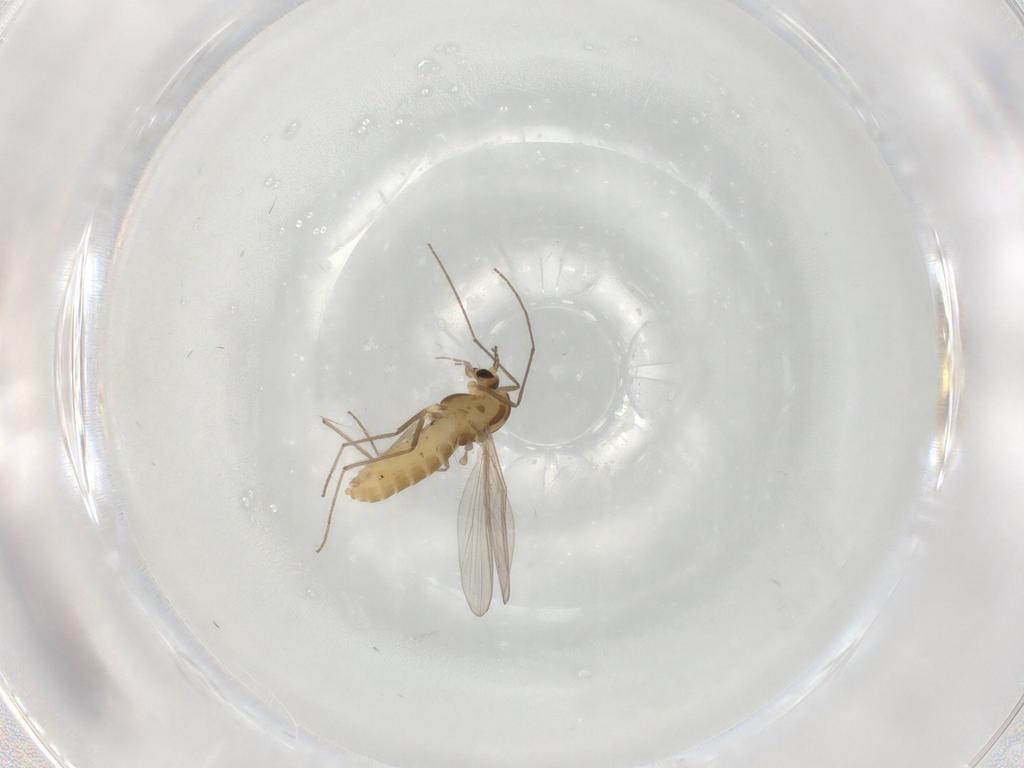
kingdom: Animalia
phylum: Arthropoda
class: Insecta
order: Diptera
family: Chironomidae
